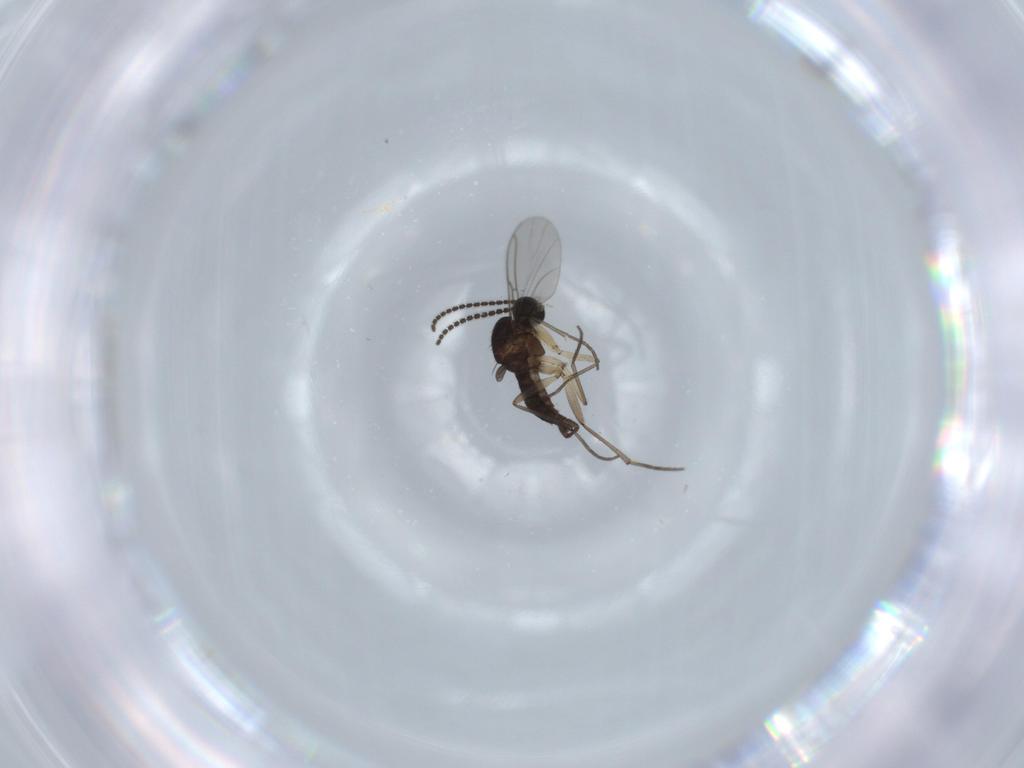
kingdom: Animalia
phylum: Arthropoda
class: Insecta
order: Diptera
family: Sciaridae
